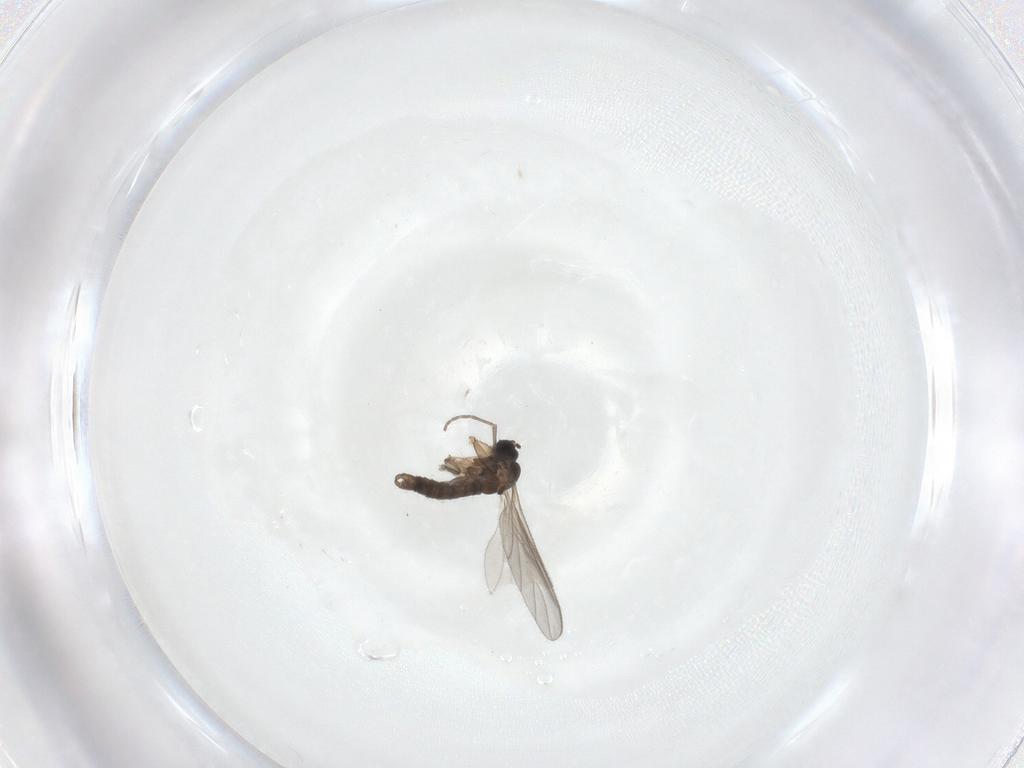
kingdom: Animalia
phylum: Arthropoda
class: Insecta
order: Diptera
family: Sciaridae
